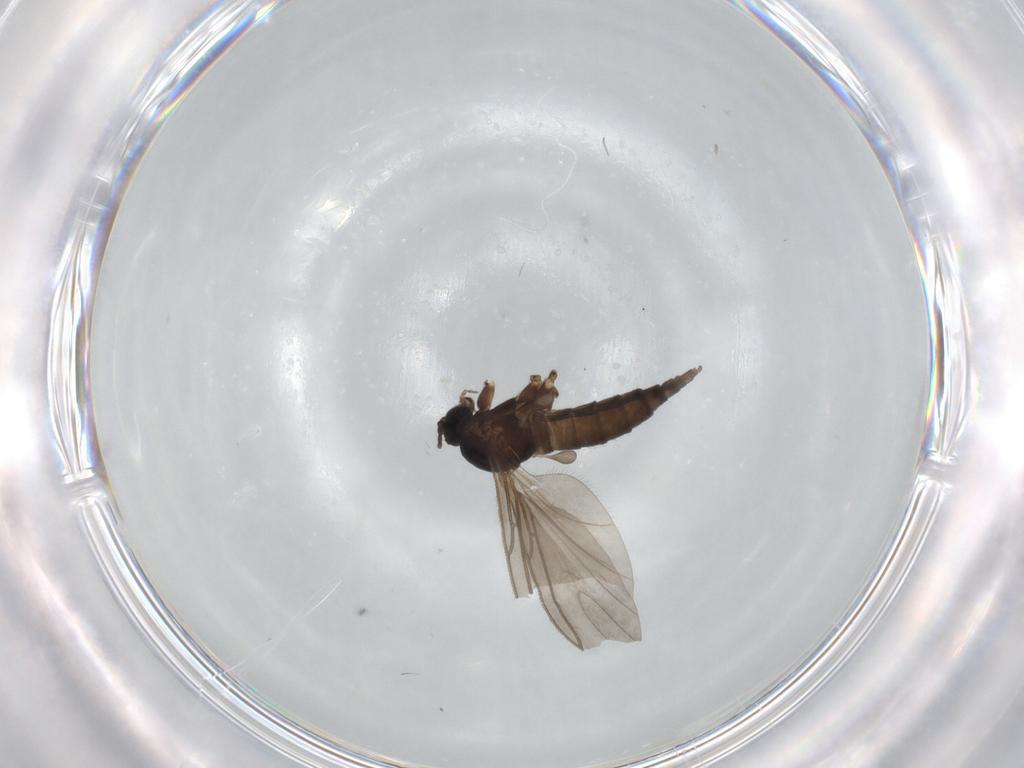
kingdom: Animalia
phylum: Arthropoda
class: Insecta
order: Diptera
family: Sciaridae
